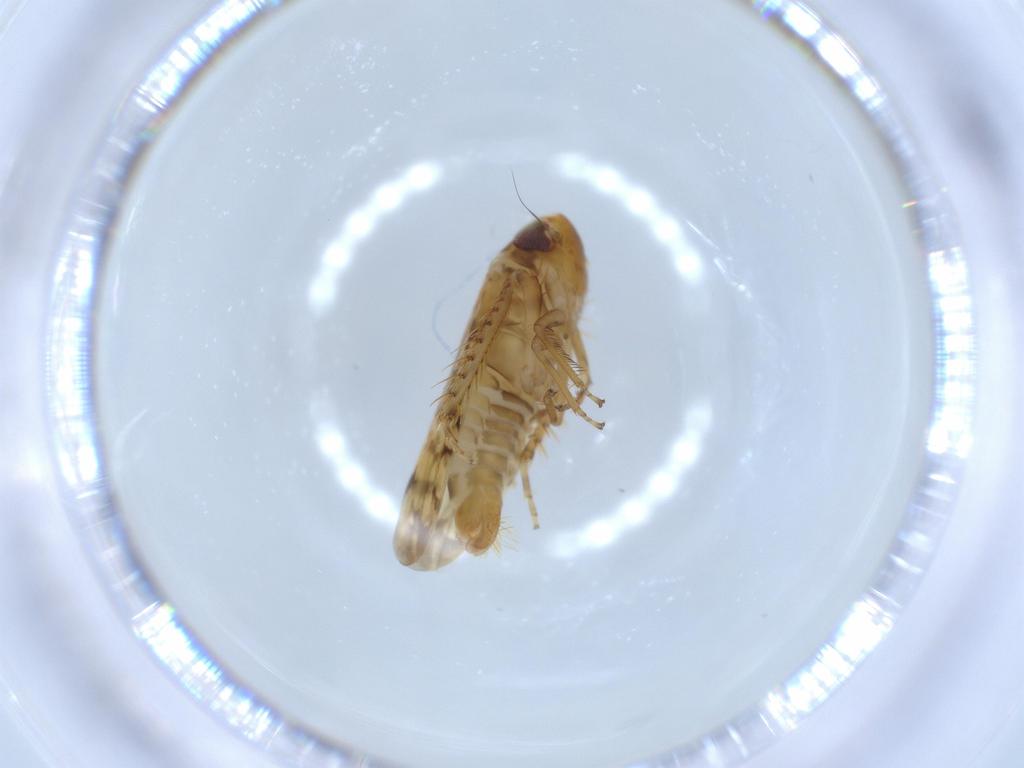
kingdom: Animalia
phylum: Arthropoda
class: Insecta
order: Hemiptera
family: Cicadellidae
